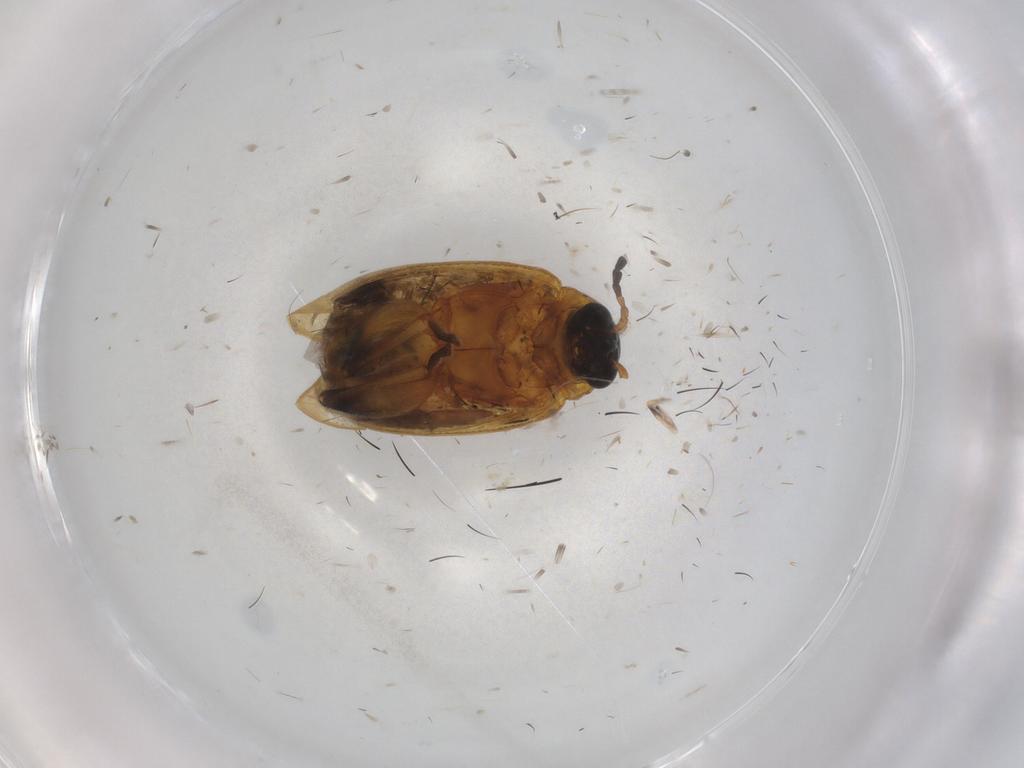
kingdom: Animalia
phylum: Arthropoda
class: Insecta
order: Coleoptera
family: Chrysomelidae
